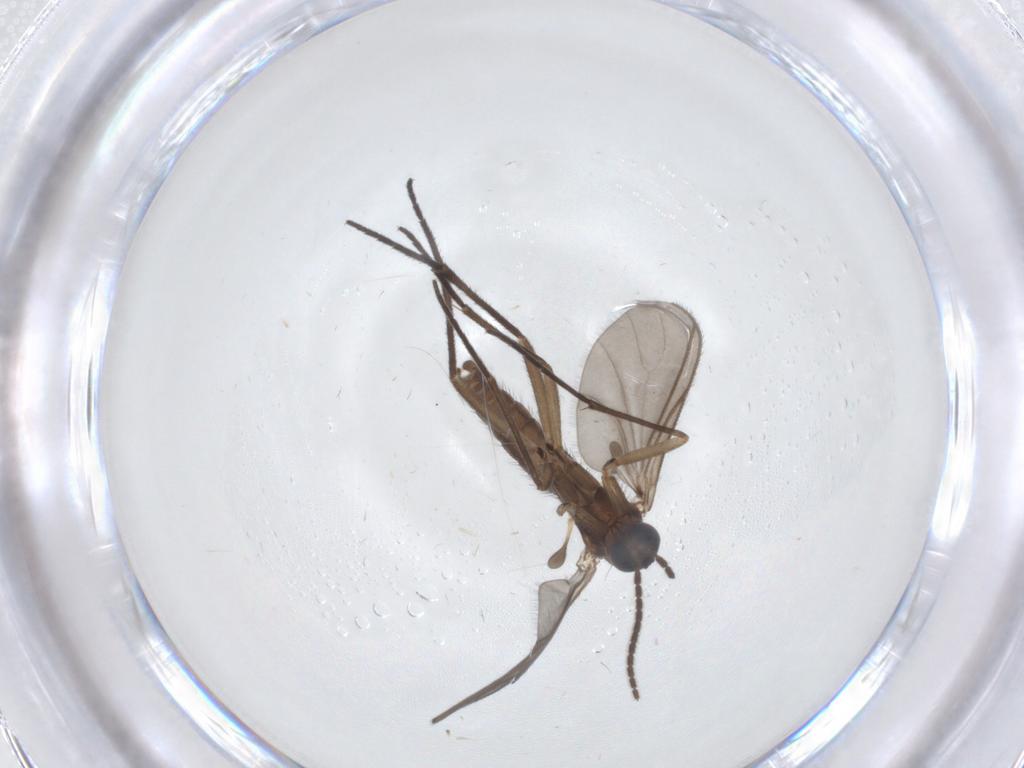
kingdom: Animalia
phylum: Arthropoda
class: Insecta
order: Diptera
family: Sciaridae
